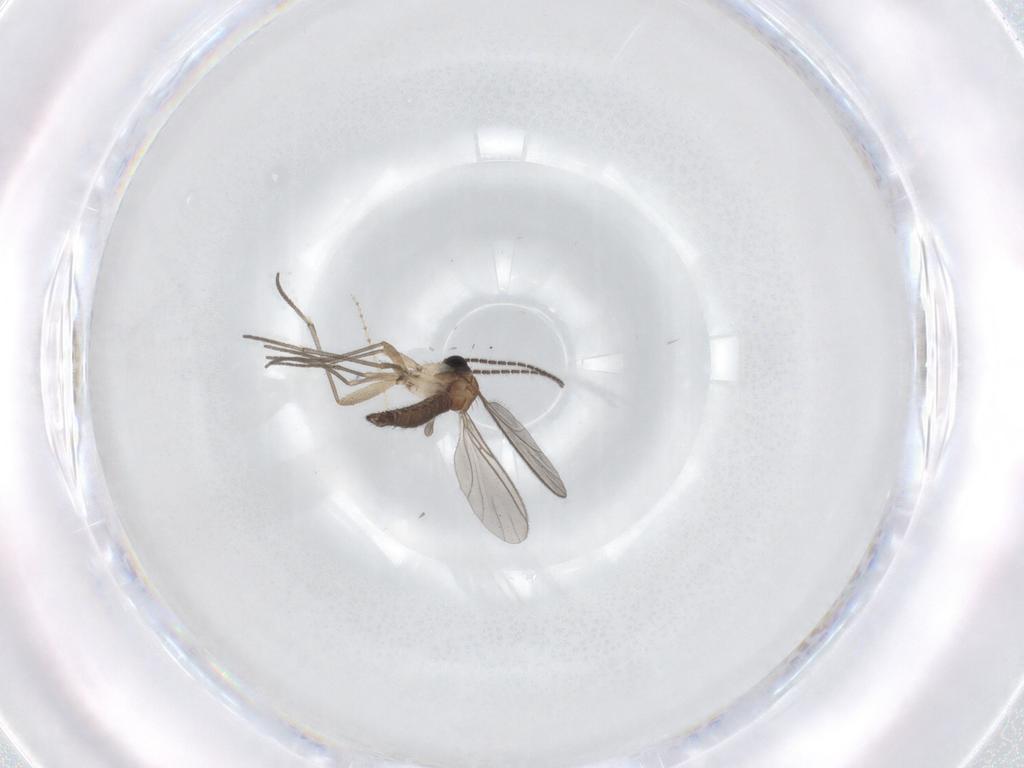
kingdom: Animalia
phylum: Arthropoda
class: Insecta
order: Diptera
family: Sciaridae
